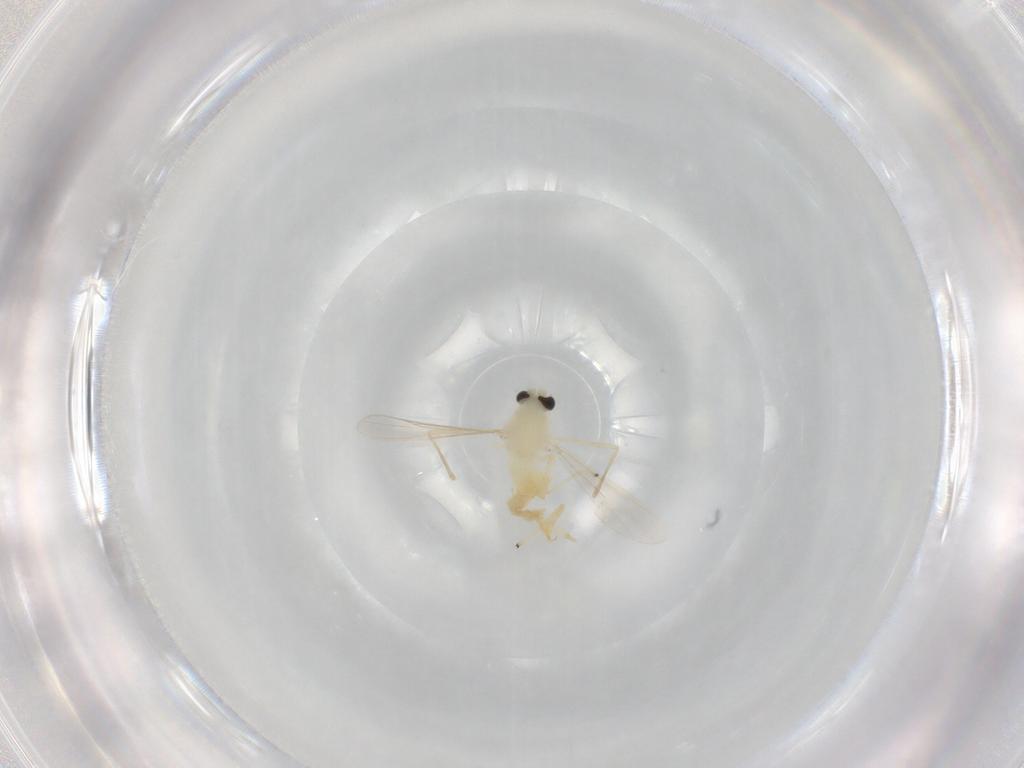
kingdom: Animalia
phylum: Arthropoda
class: Insecta
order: Diptera
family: Chironomidae
